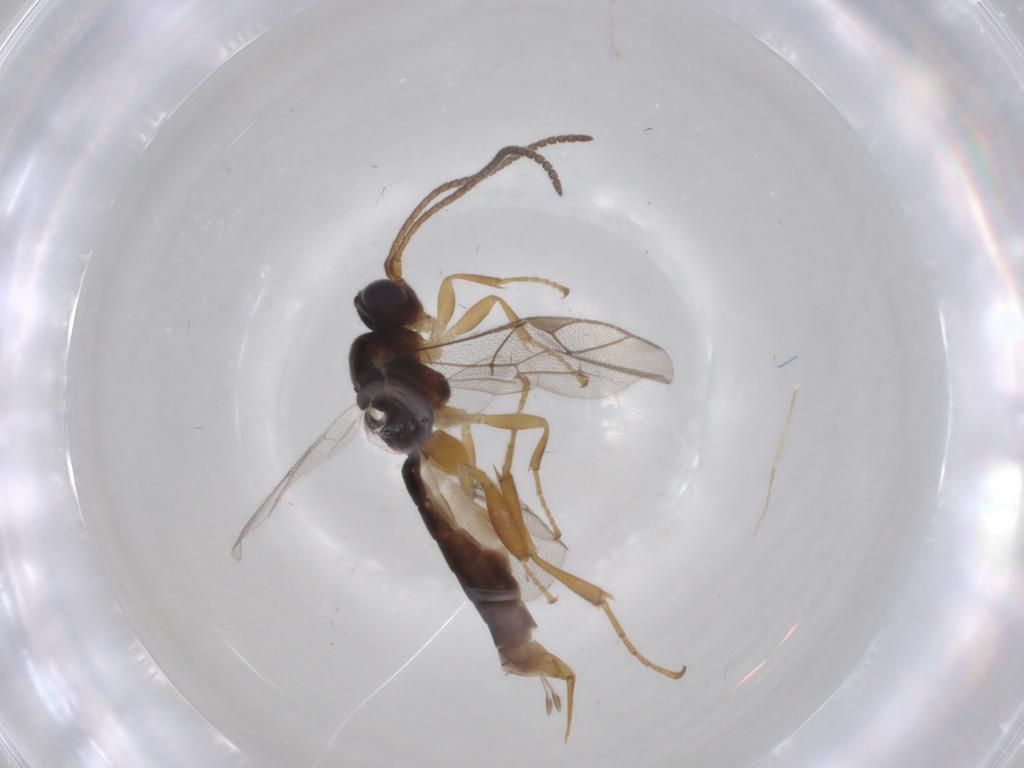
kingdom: Animalia
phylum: Arthropoda
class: Insecta
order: Hymenoptera
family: Ichneumonidae
